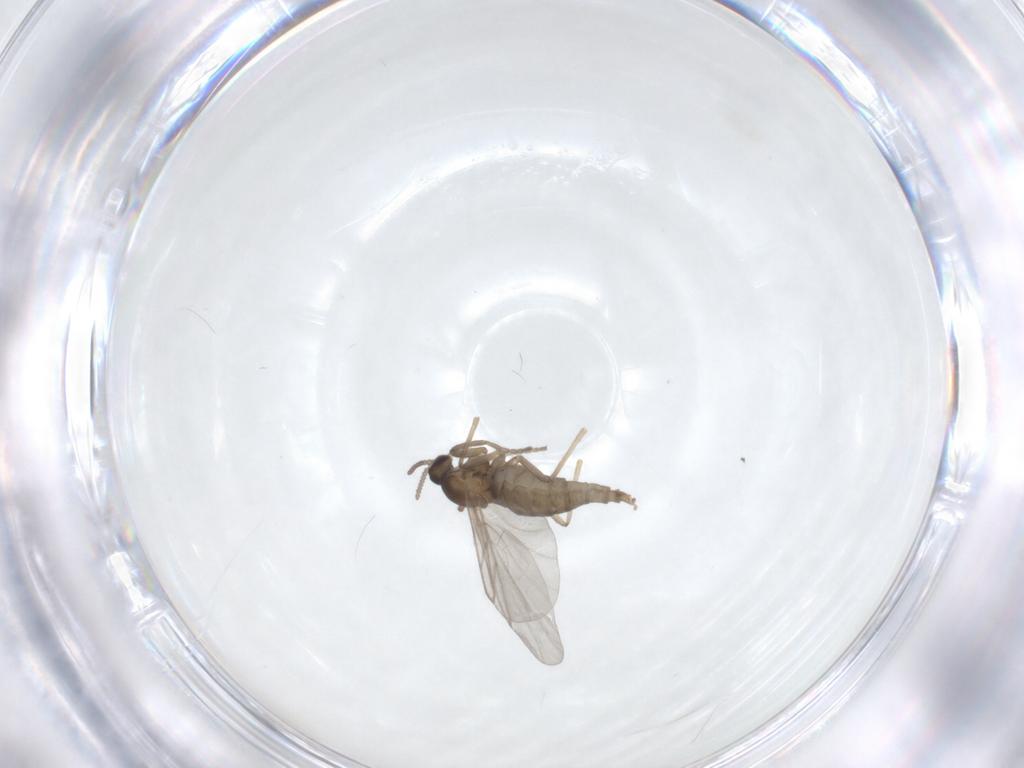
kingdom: Animalia
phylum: Arthropoda
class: Insecta
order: Diptera
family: Cecidomyiidae
